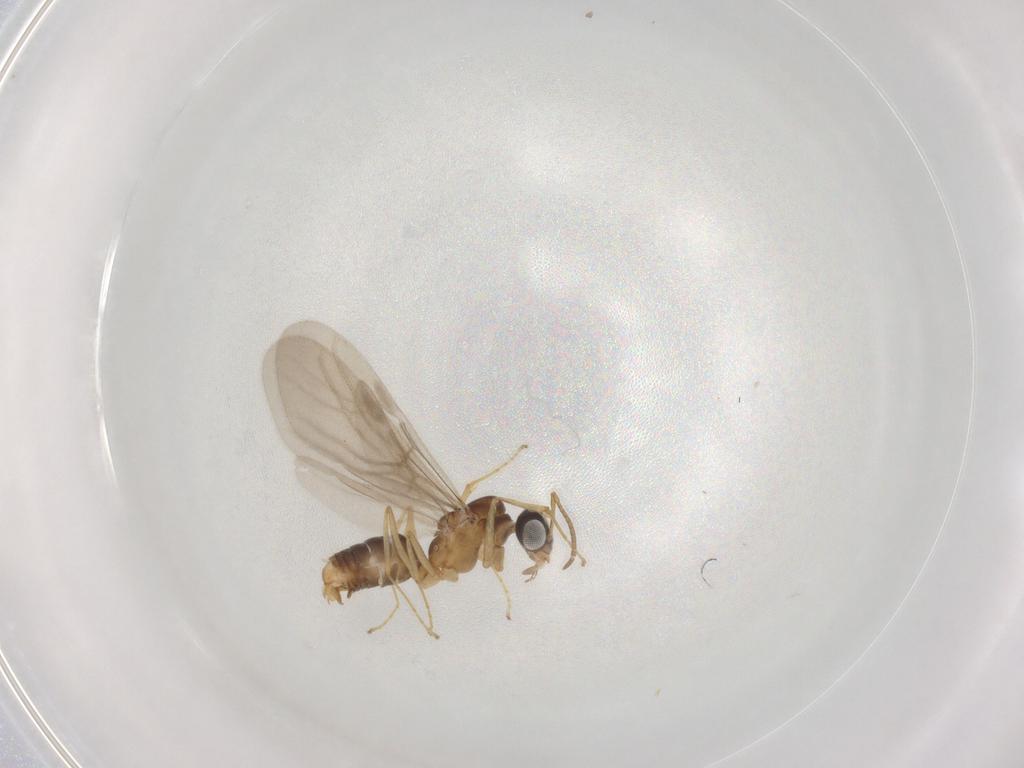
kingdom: Animalia
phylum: Arthropoda
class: Insecta
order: Hymenoptera
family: Formicidae
